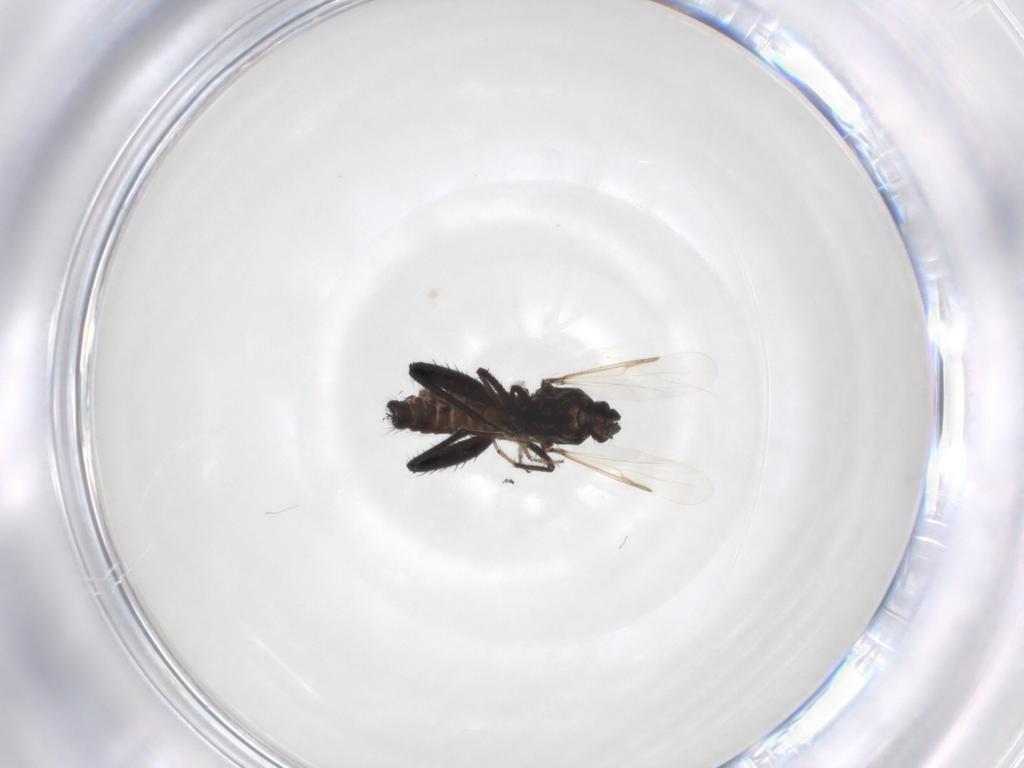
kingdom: Animalia
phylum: Arthropoda
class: Insecta
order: Diptera
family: Ceratopogonidae
